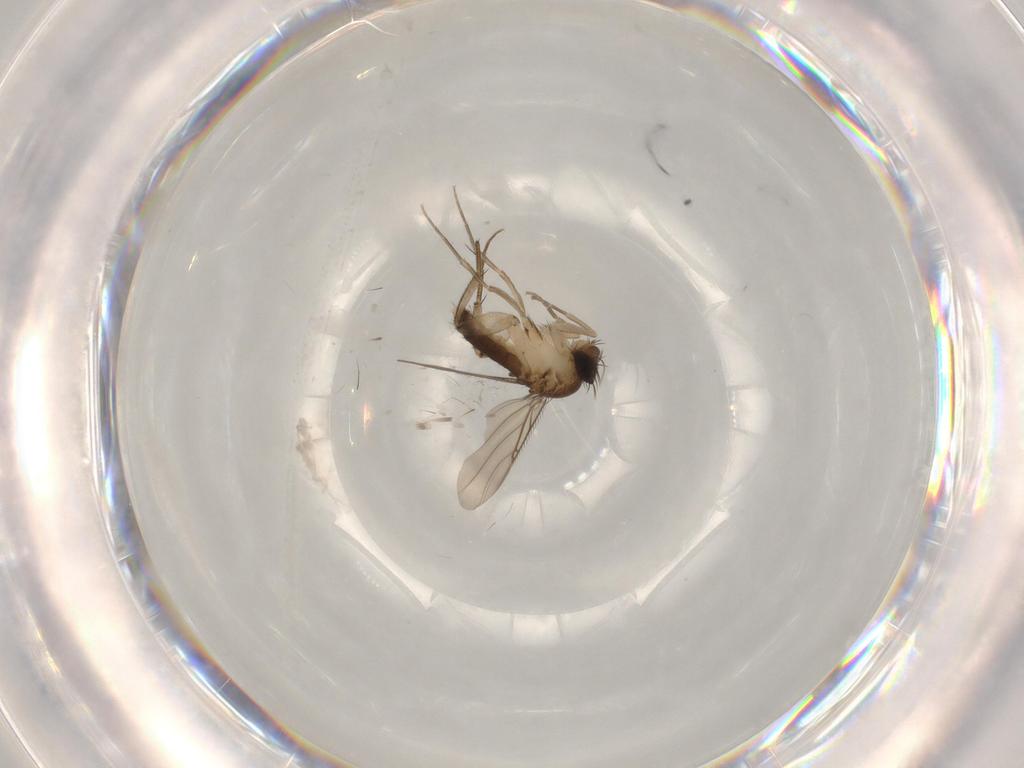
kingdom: Animalia
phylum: Arthropoda
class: Insecta
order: Diptera
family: Phoridae
